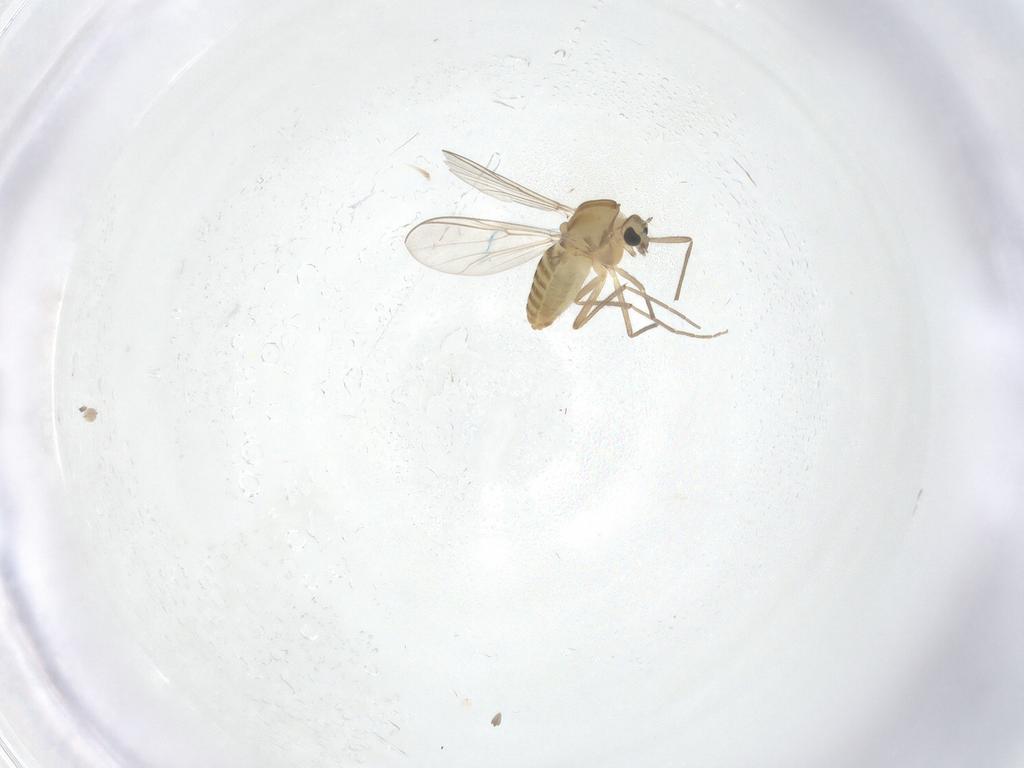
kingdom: Animalia
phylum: Arthropoda
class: Insecta
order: Diptera
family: Chironomidae
